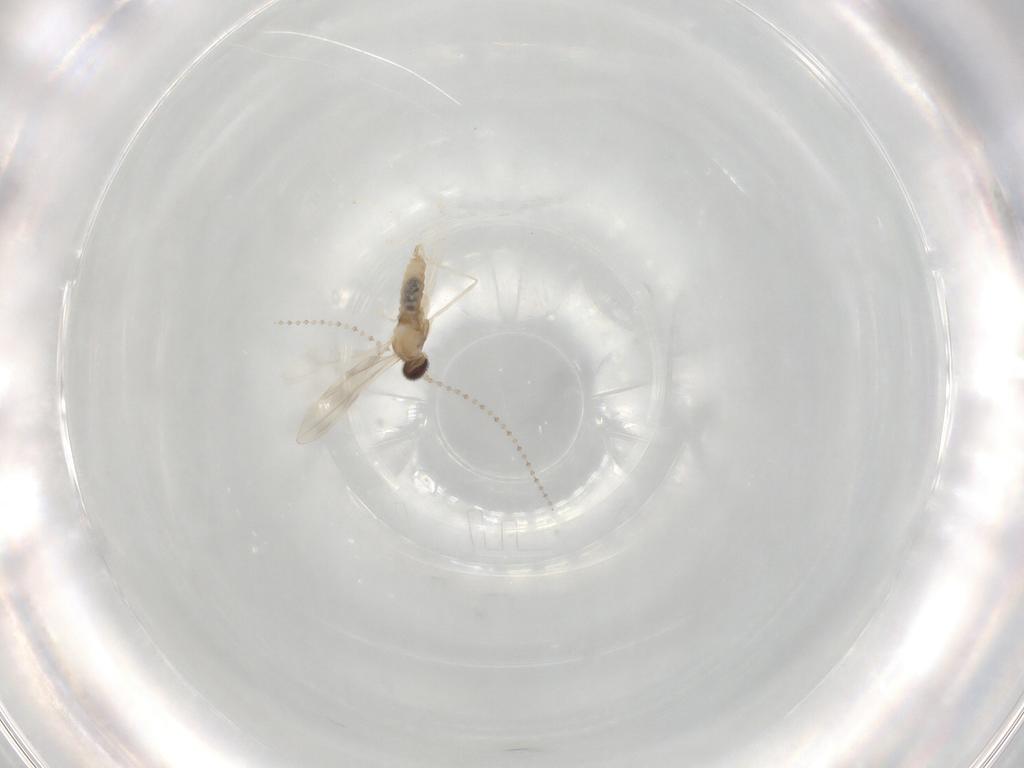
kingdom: Animalia
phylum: Arthropoda
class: Insecta
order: Diptera
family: Cecidomyiidae
